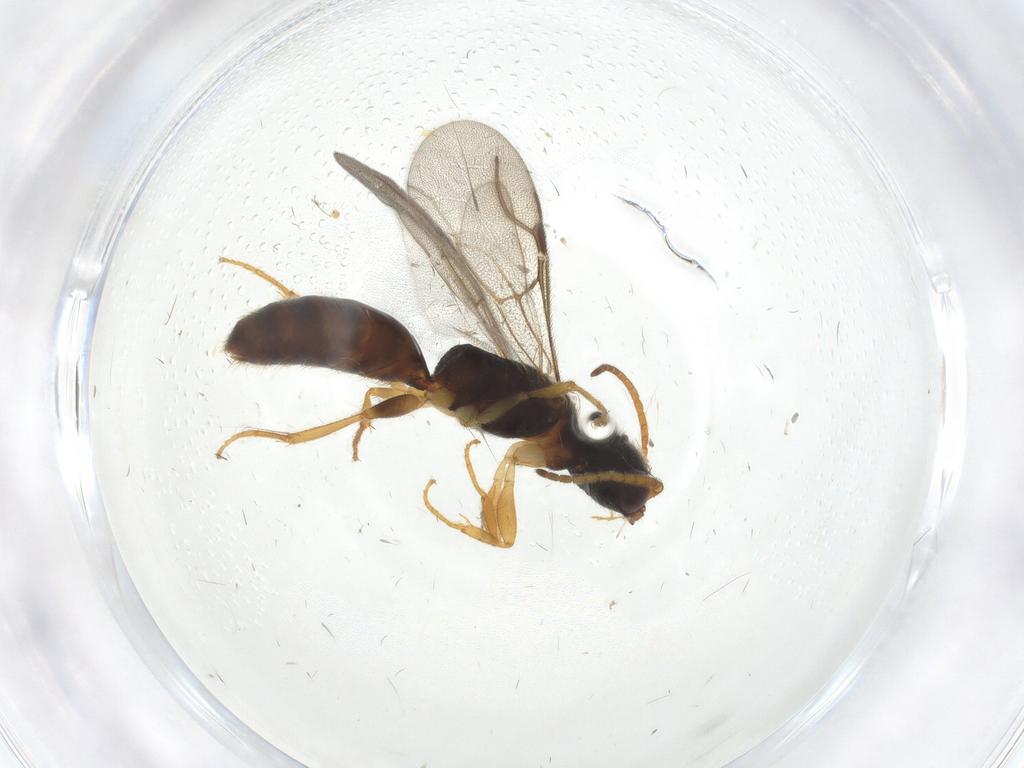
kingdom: Animalia
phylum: Arthropoda
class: Insecta
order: Hymenoptera
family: Bethylidae
